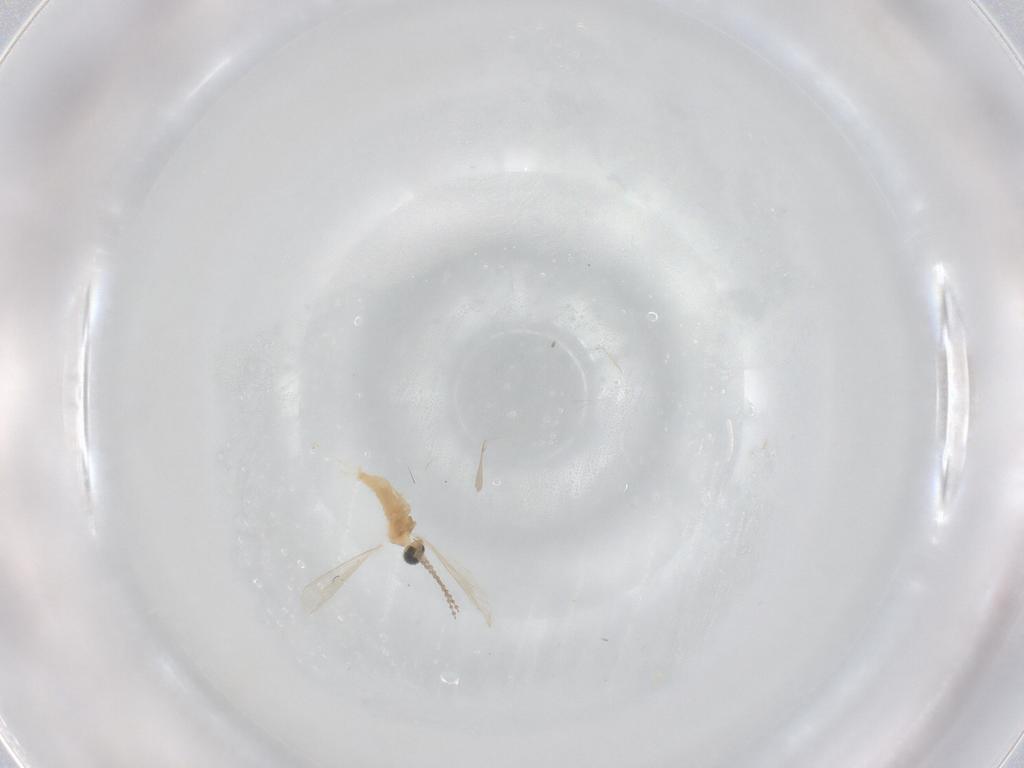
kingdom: Animalia
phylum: Arthropoda
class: Insecta
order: Diptera
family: Cecidomyiidae
